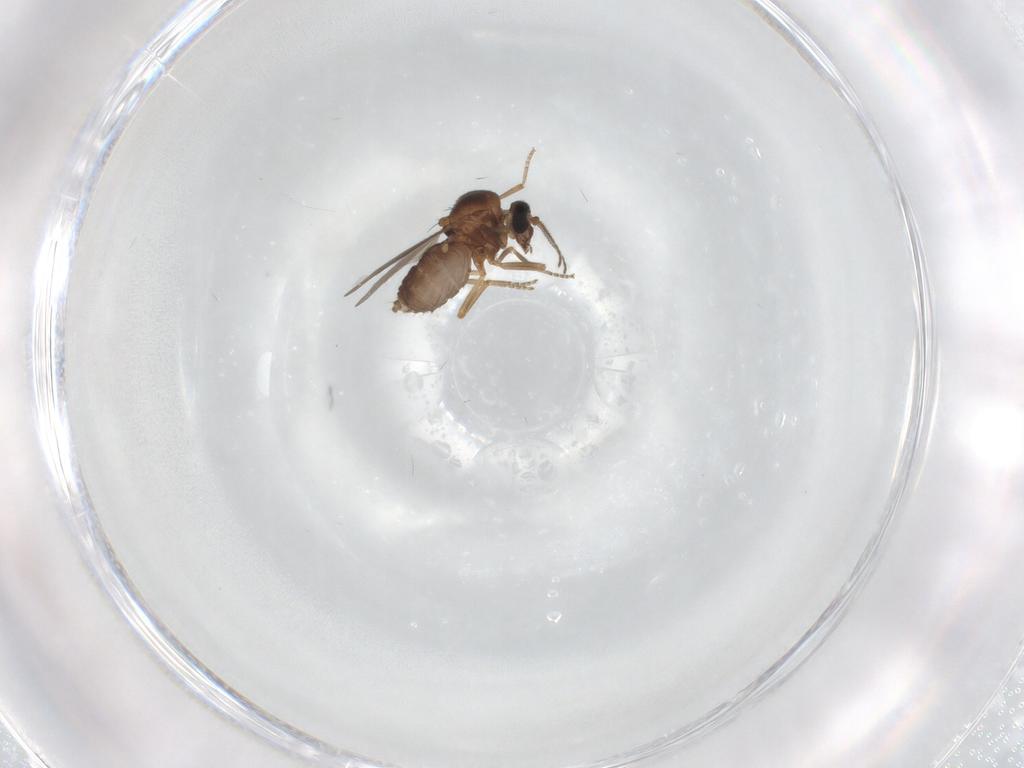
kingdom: Animalia
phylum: Arthropoda
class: Insecta
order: Diptera
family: Ceratopogonidae
